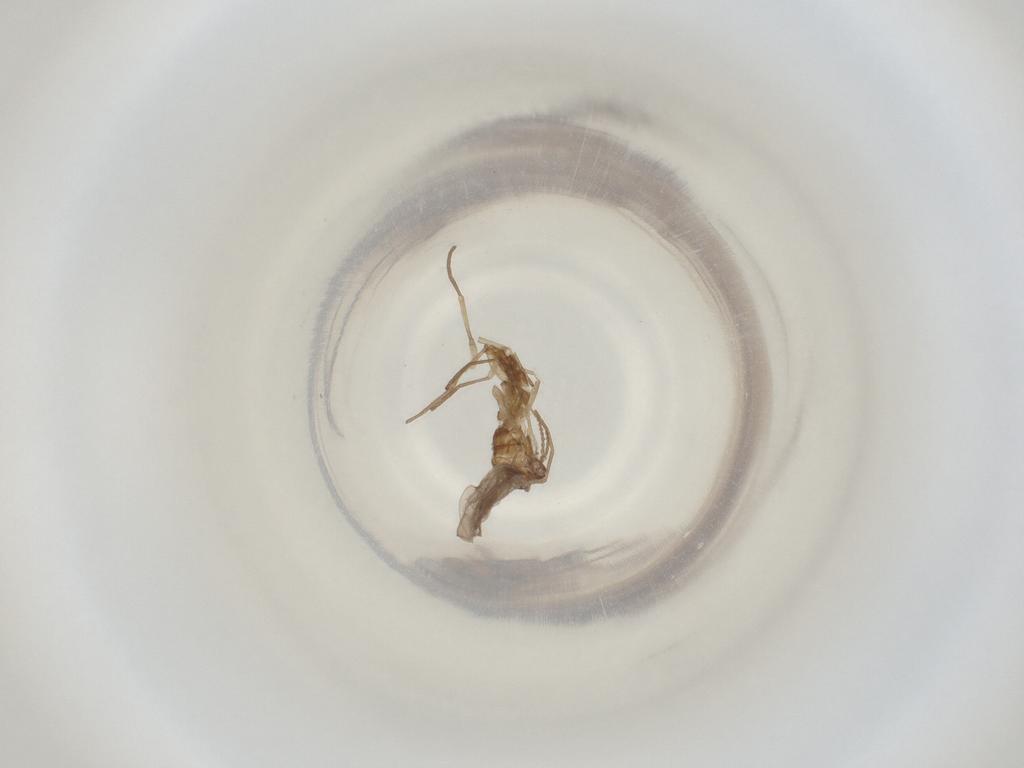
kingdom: Animalia
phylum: Arthropoda
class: Insecta
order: Diptera
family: Cecidomyiidae
